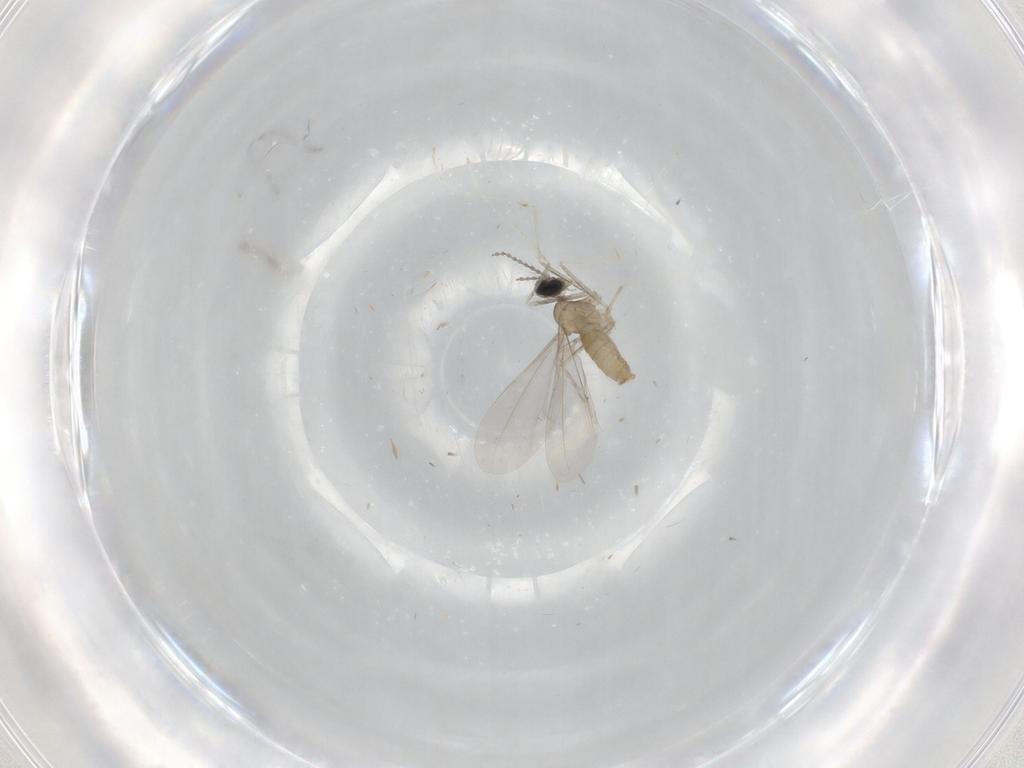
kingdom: Animalia
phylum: Arthropoda
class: Insecta
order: Diptera
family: Cecidomyiidae
